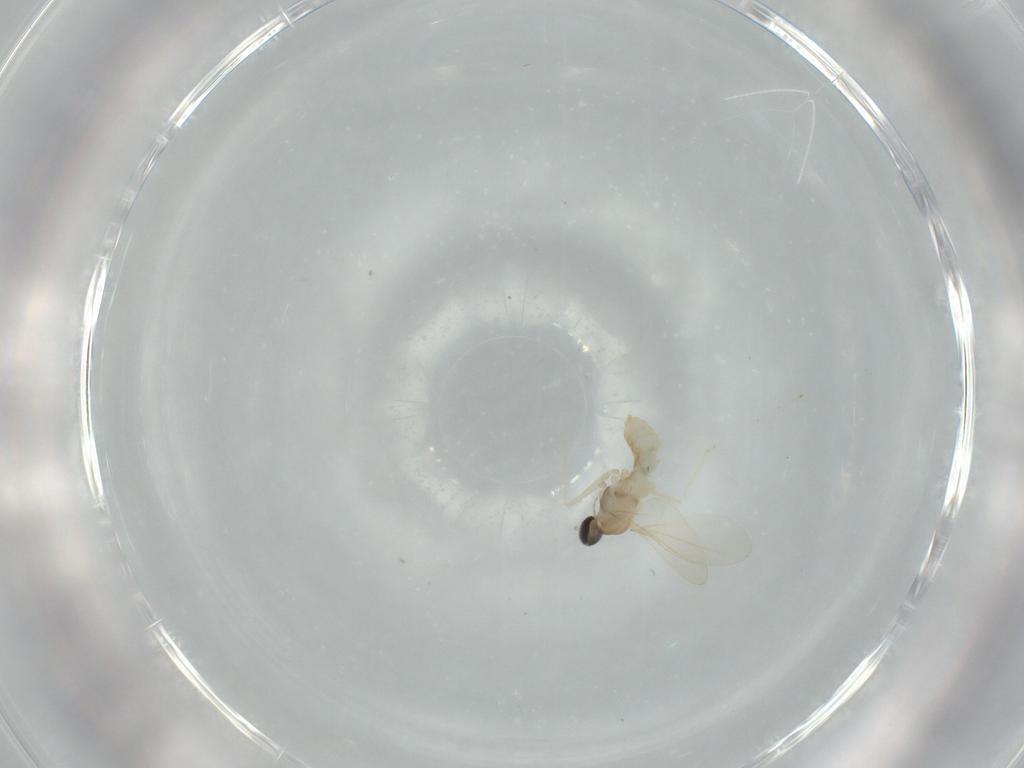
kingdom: Animalia
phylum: Arthropoda
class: Insecta
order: Diptera
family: Cecidomyiidae
